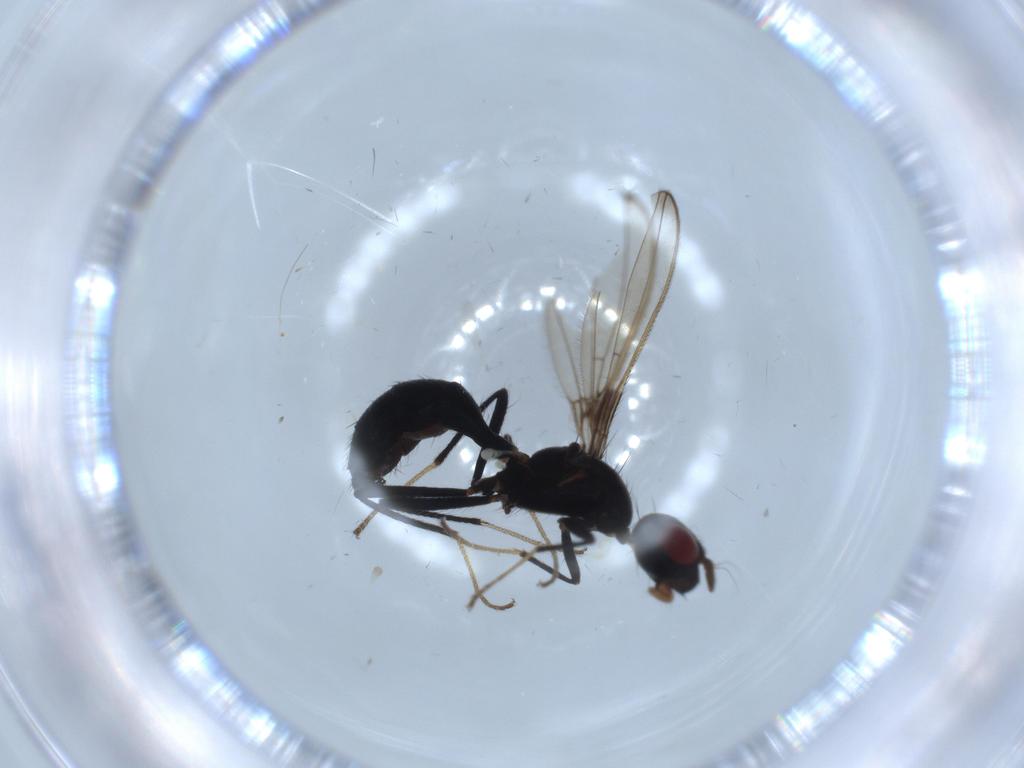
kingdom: Animalia
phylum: Arthropoda
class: Insecta
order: Diptera
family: Richardiidae
